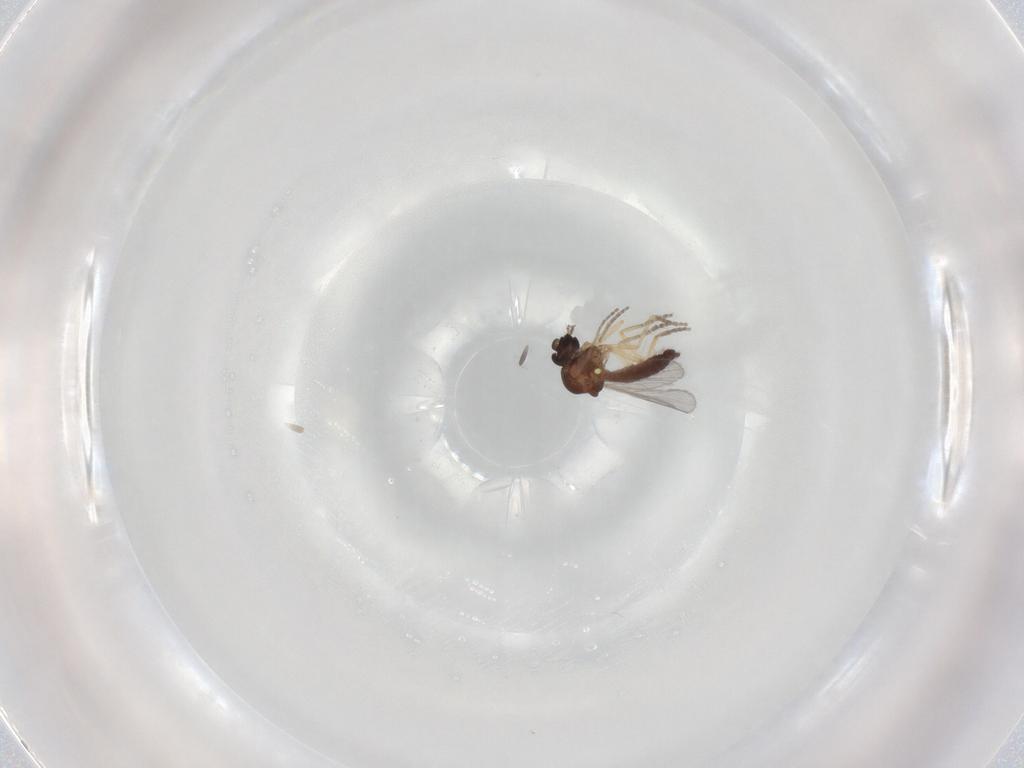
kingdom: Animalia
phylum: Arthropoda
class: Insecta
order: Diptera
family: Ceratopogonidae
